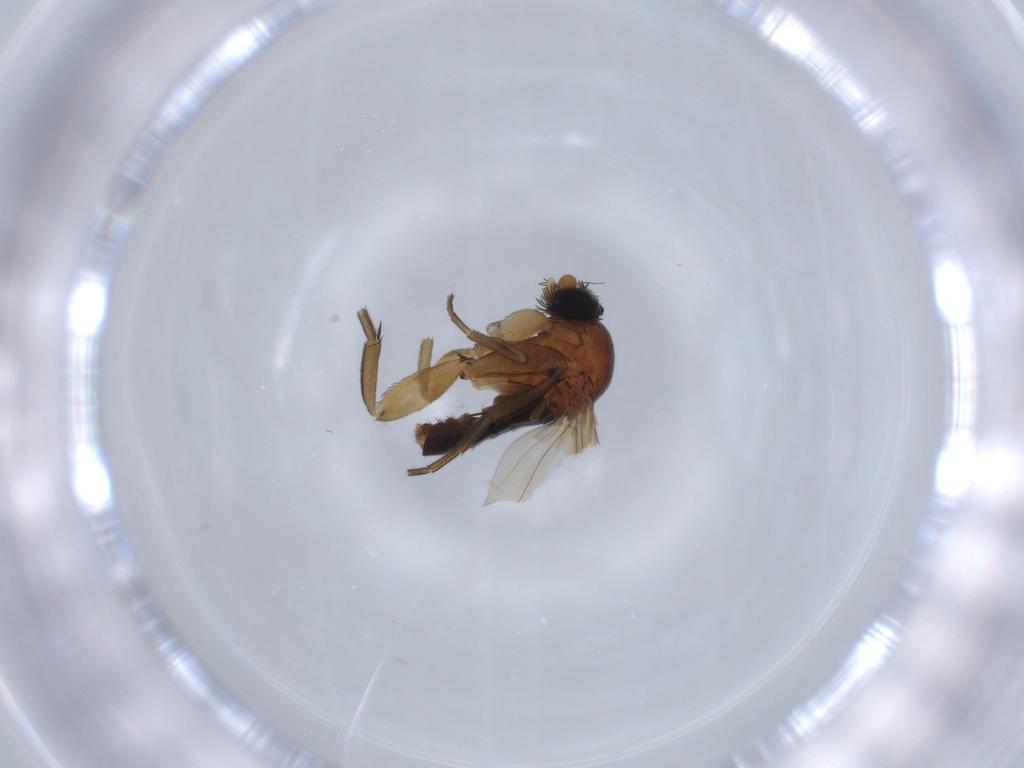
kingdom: Animalia
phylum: Arthropoda
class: Insecta
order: Diptera
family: Phoridae
